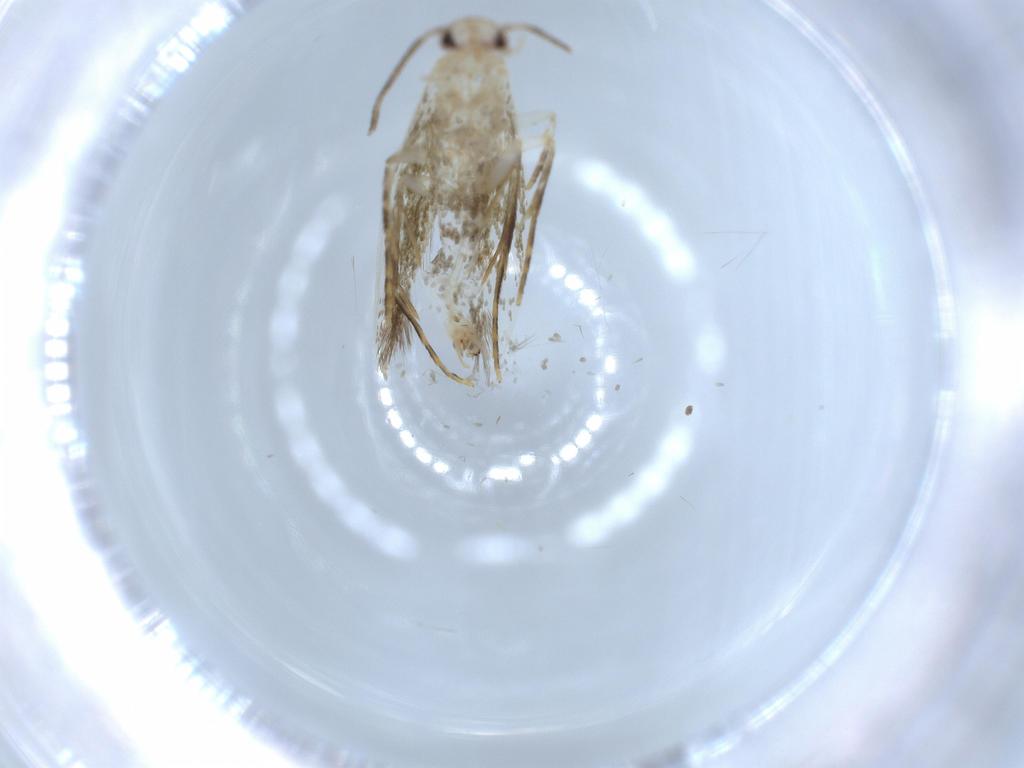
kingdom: Animalia
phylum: Arthropoda
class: Insecta
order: Lepidoptera
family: Tineidae
